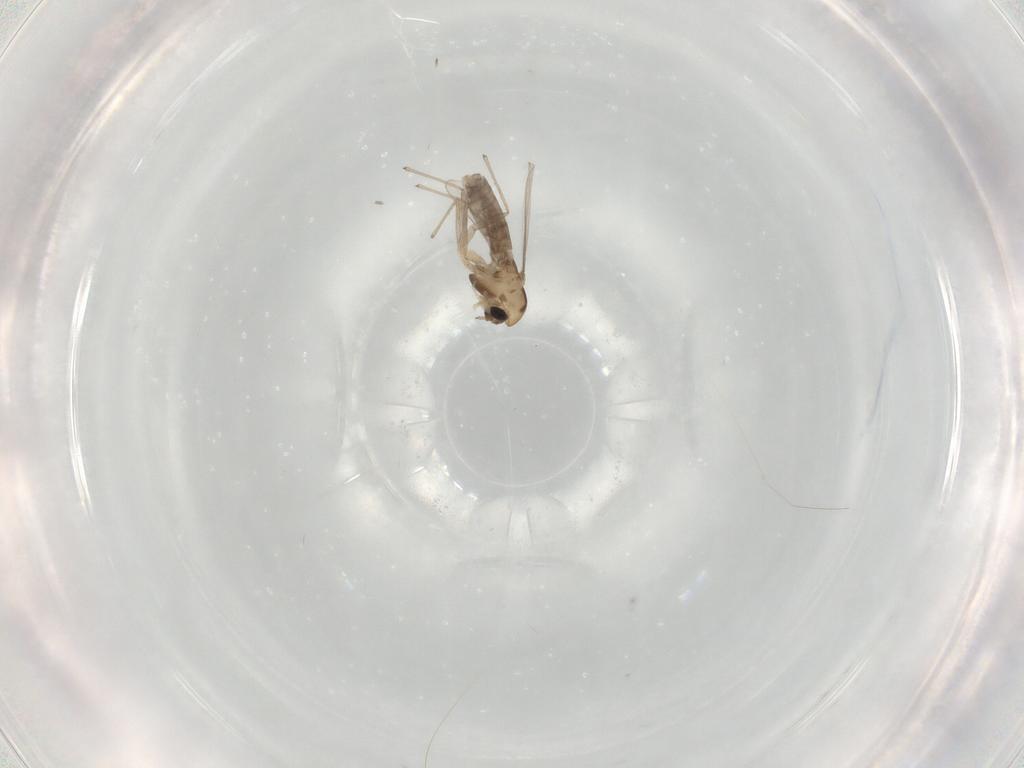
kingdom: Animalia
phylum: Arthropoda
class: Insecta
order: Diptera
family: Chironomidae
